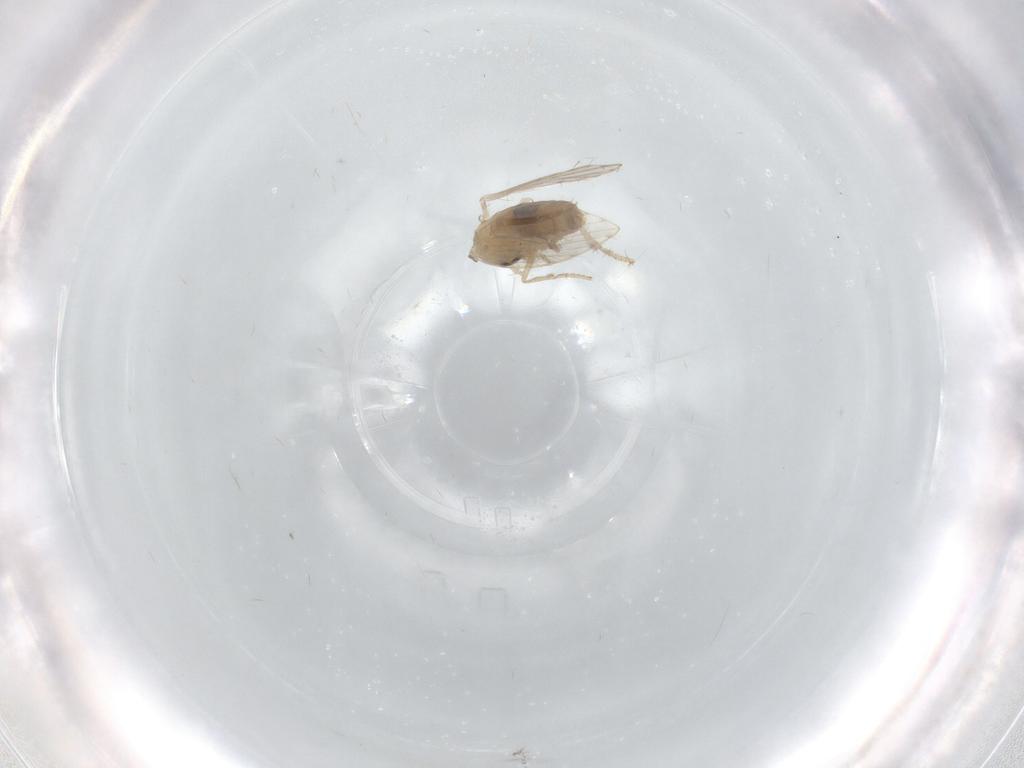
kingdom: Animalia
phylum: Arthropoda
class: Insecta
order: Diptera
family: Psychodidae
